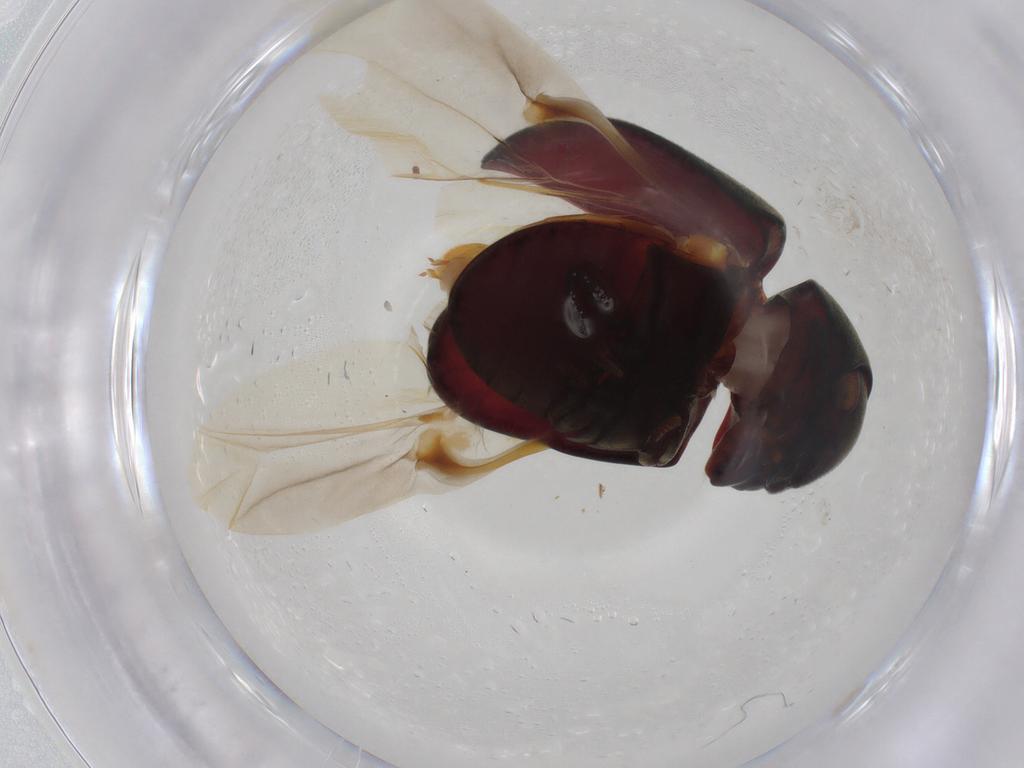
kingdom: Animalia
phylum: Arthropoda
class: Insecta
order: Coleoptera
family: Ptinidae
